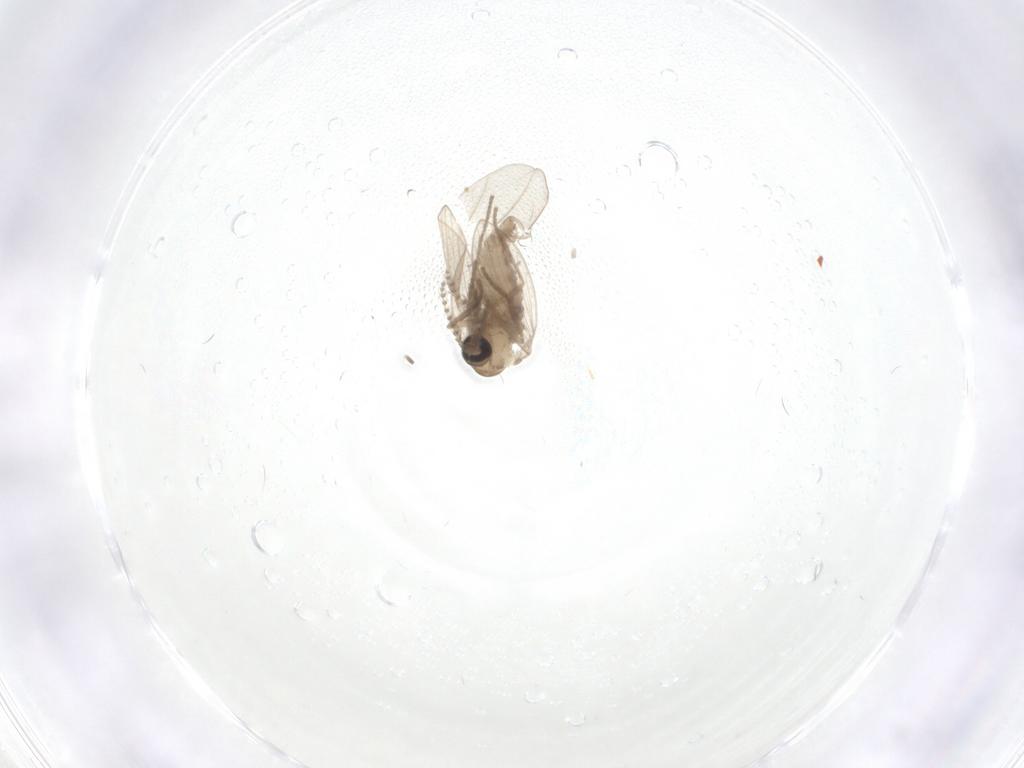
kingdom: Animalia
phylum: Arthropoda
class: Insecta
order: Diptera
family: Psychodidae
